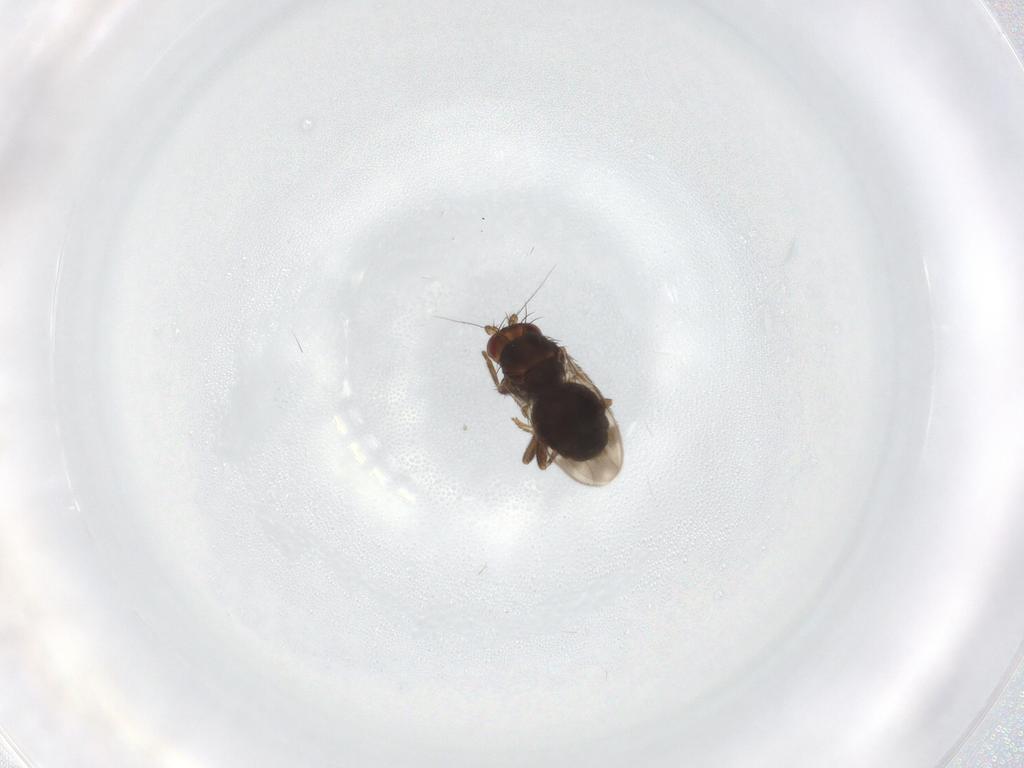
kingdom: Animalia
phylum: Arthropoda
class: Insecta
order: Diptera
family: Sphaeroceridae
